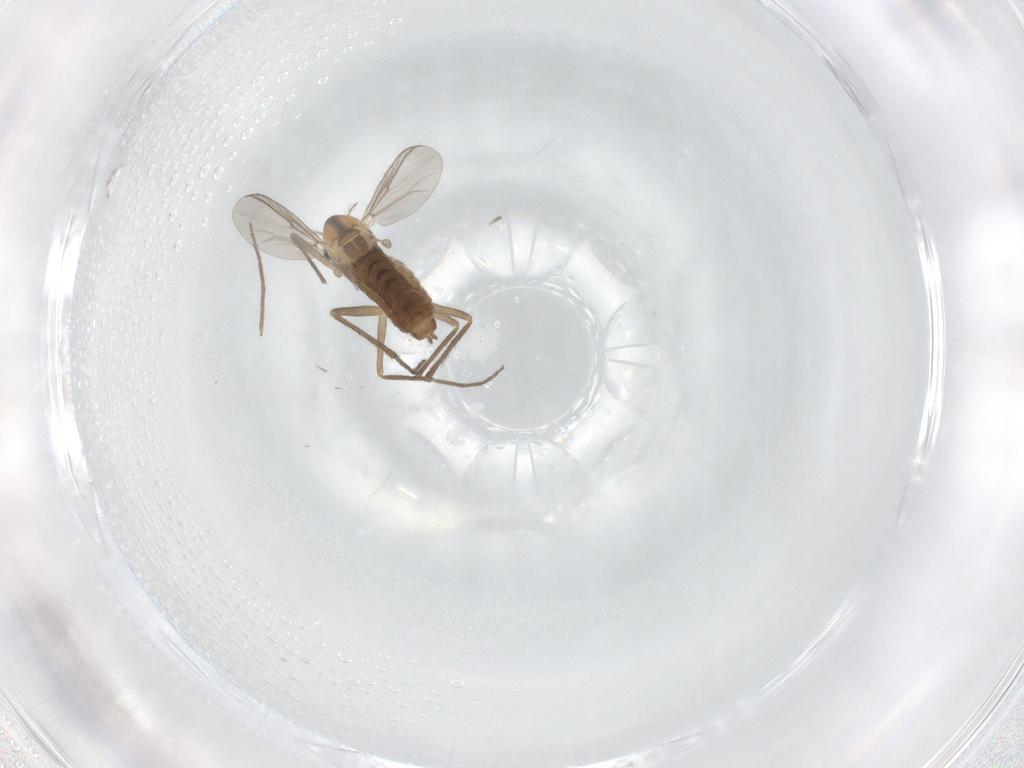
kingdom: Animalia
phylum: Arthropoda
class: Insecta
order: Diptera
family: Chironomidae
